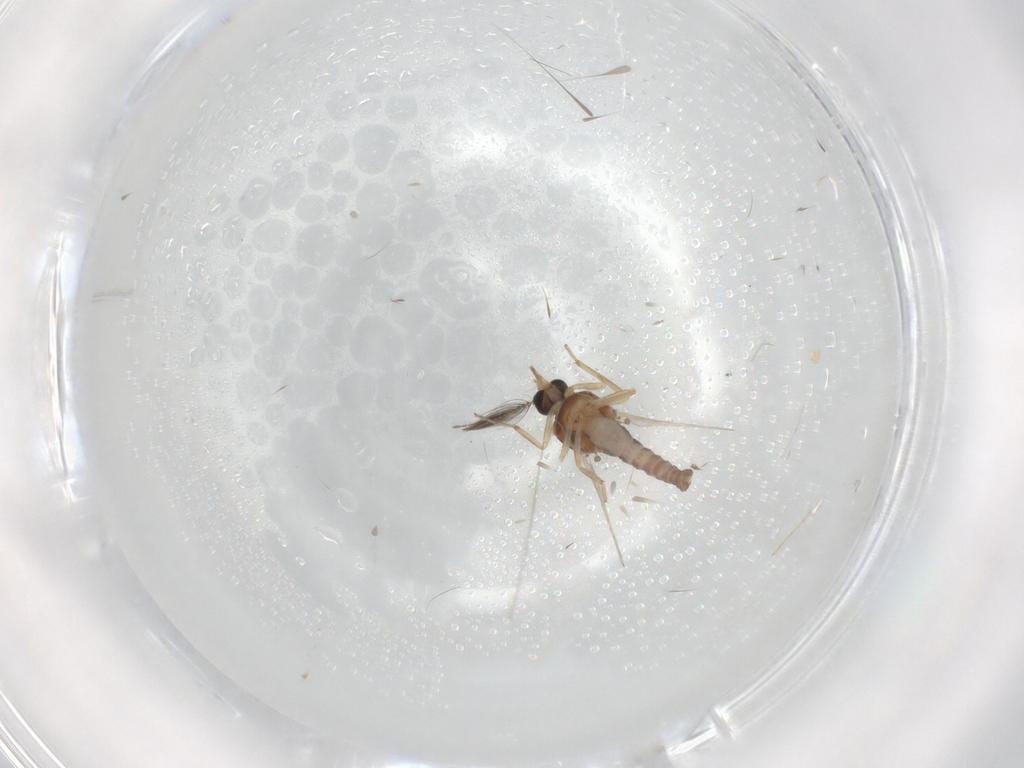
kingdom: Animalia
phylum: Arthropoda
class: Insecta
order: Diptera
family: Ceratopogonidae
